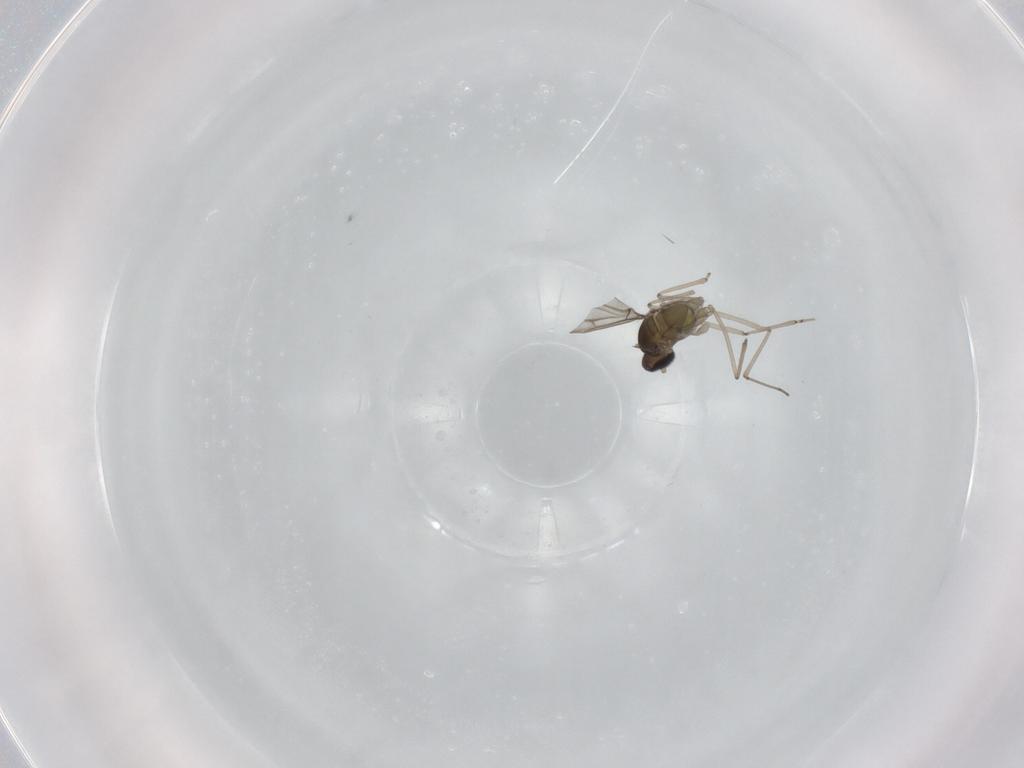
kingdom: Animalia
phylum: Arthropoda
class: Insecta
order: Diptera
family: Cecidomyiidae
